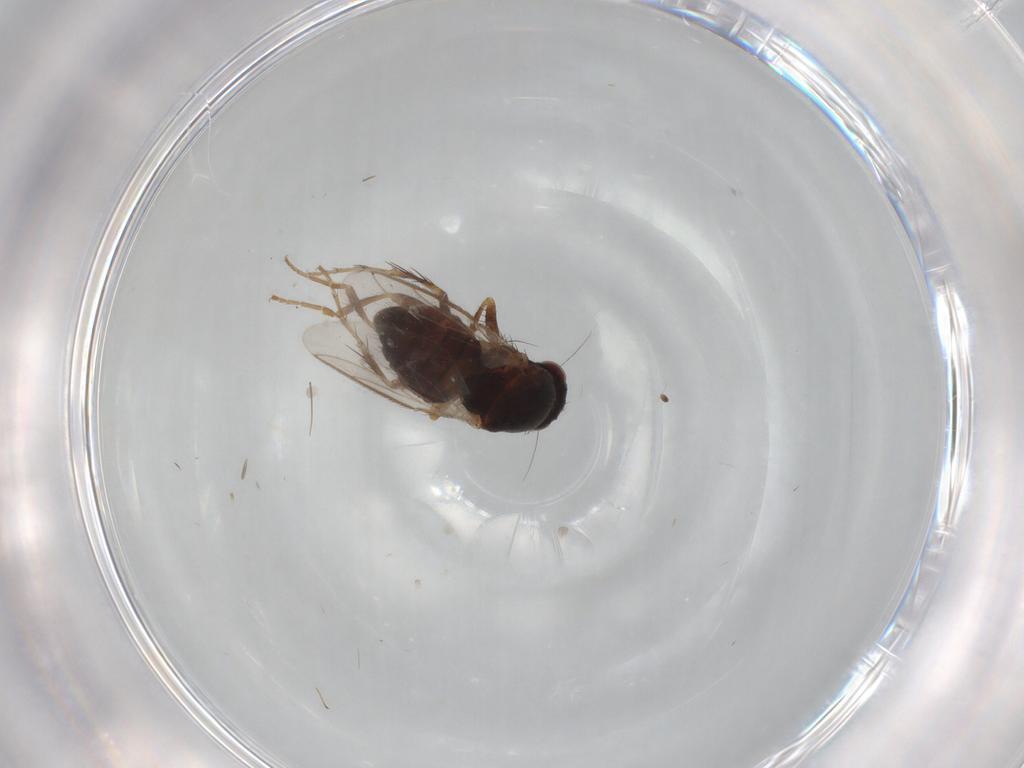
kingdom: Animalia
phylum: Arthropoda
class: Insecta
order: Diptera
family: Sphaeroceridae
